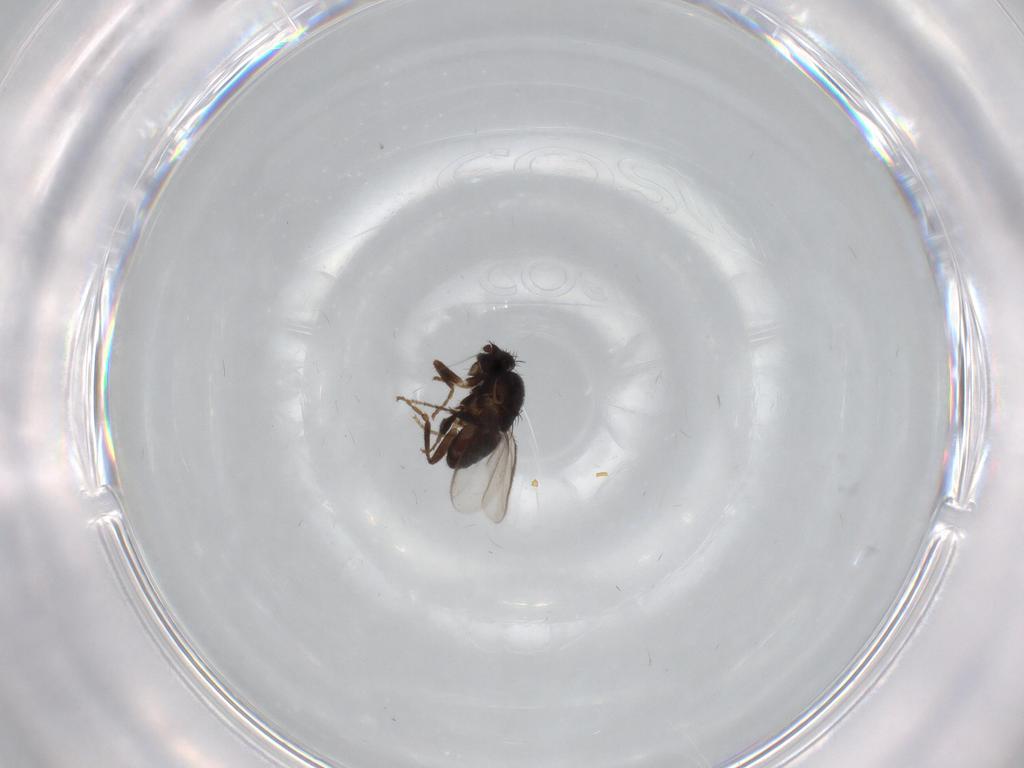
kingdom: Animalia
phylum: Arthropoda
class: Insecta
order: Diptera
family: Sphaeroceridae
